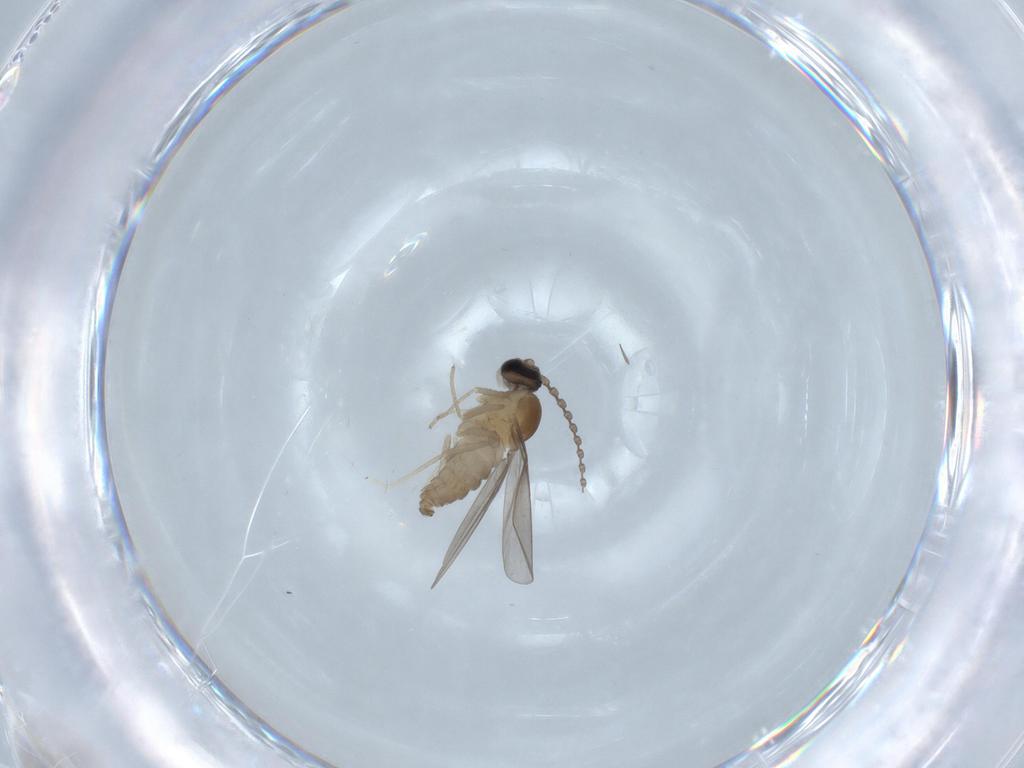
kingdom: Animalia
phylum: Arthropoda
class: Insecta
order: Diptera
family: Cecidomyiidae
